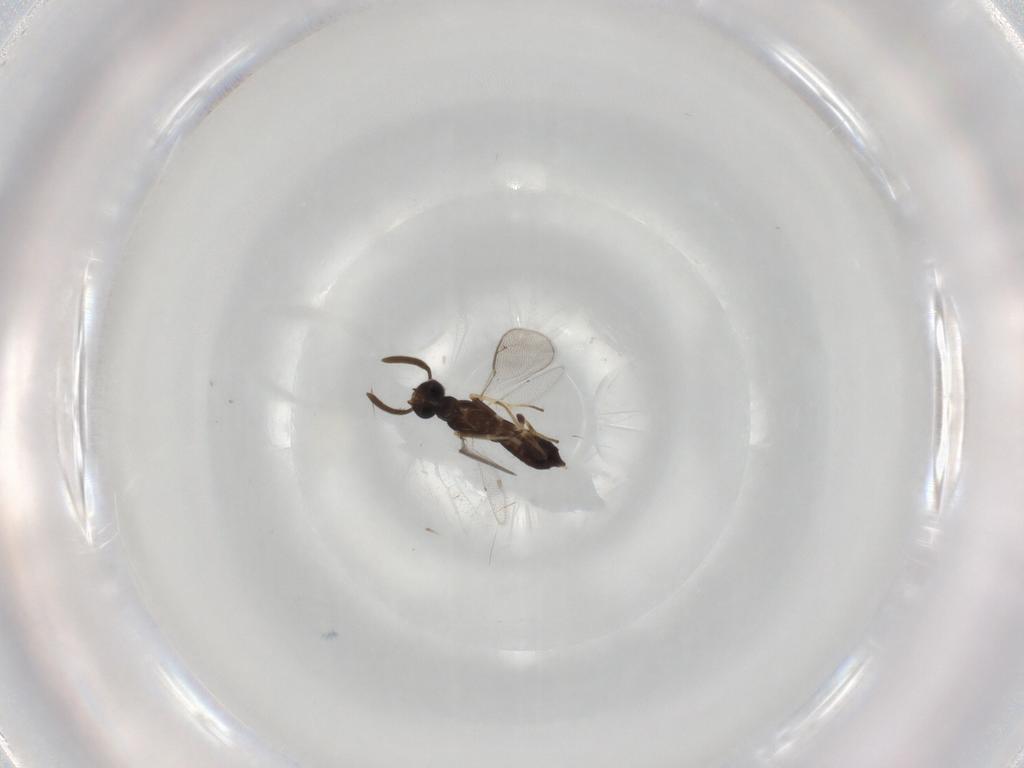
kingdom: Animalia
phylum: Arthropoda
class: Insecta
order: Hymenoptera
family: Eupelmidae
